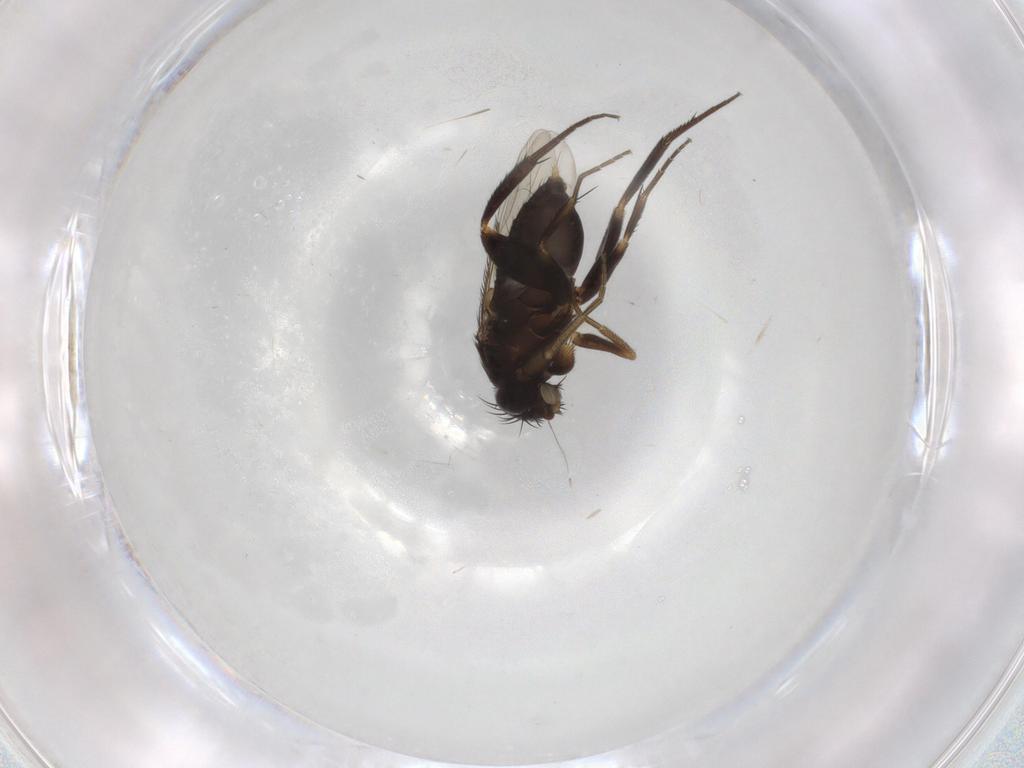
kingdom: Animalia
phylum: Arthropoda
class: Insecta
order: Diptera
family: Phoridae
